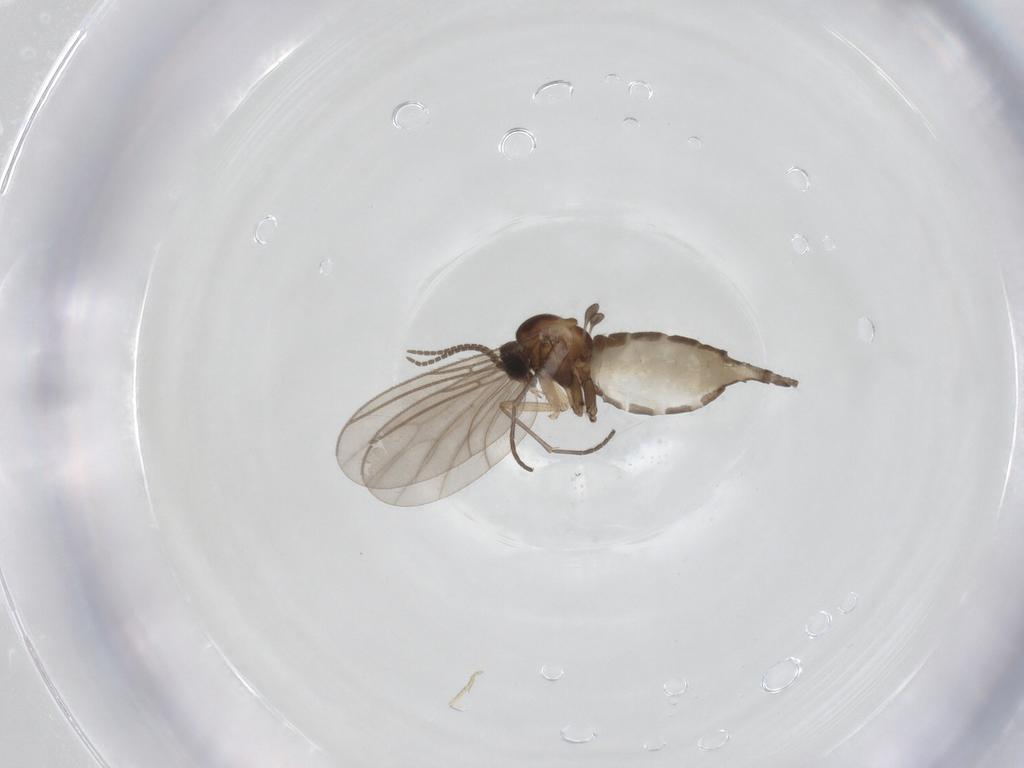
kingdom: Animalia
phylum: Arthropoda
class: Insecta
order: Diptera
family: Sciaridae
